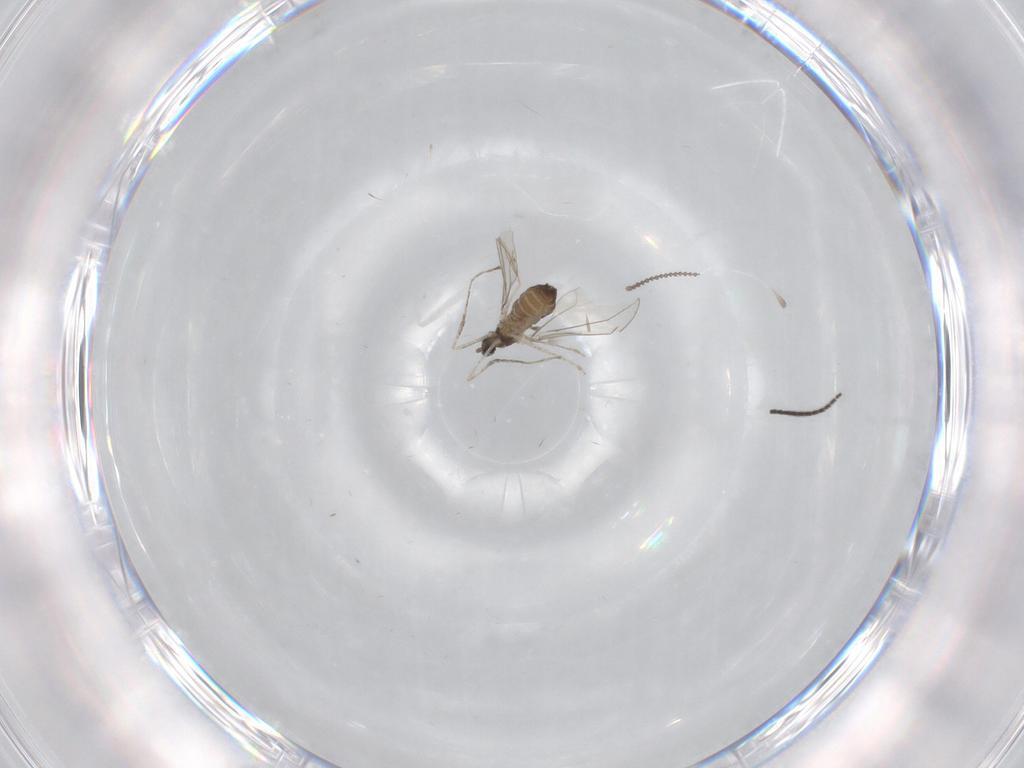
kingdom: Animalia
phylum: Arthropoda
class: Insecta
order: Diptera
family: Cecidomyiidae
